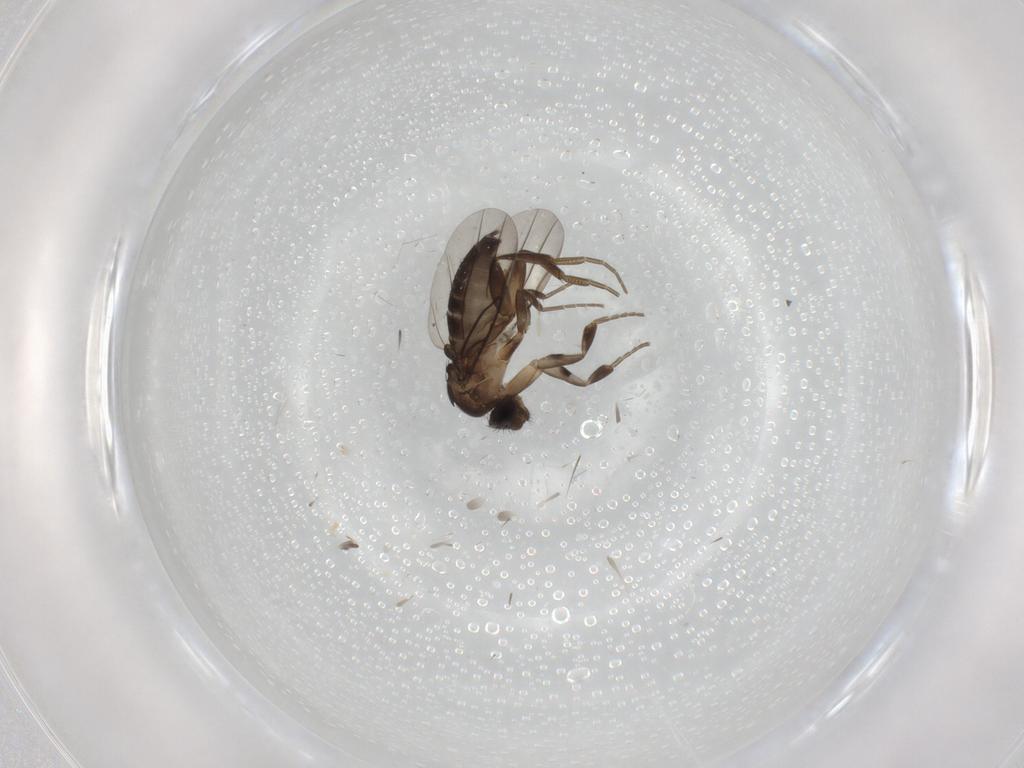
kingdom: Animalia
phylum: Arthropoda
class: Insecta
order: Diptera
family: Phoridae
